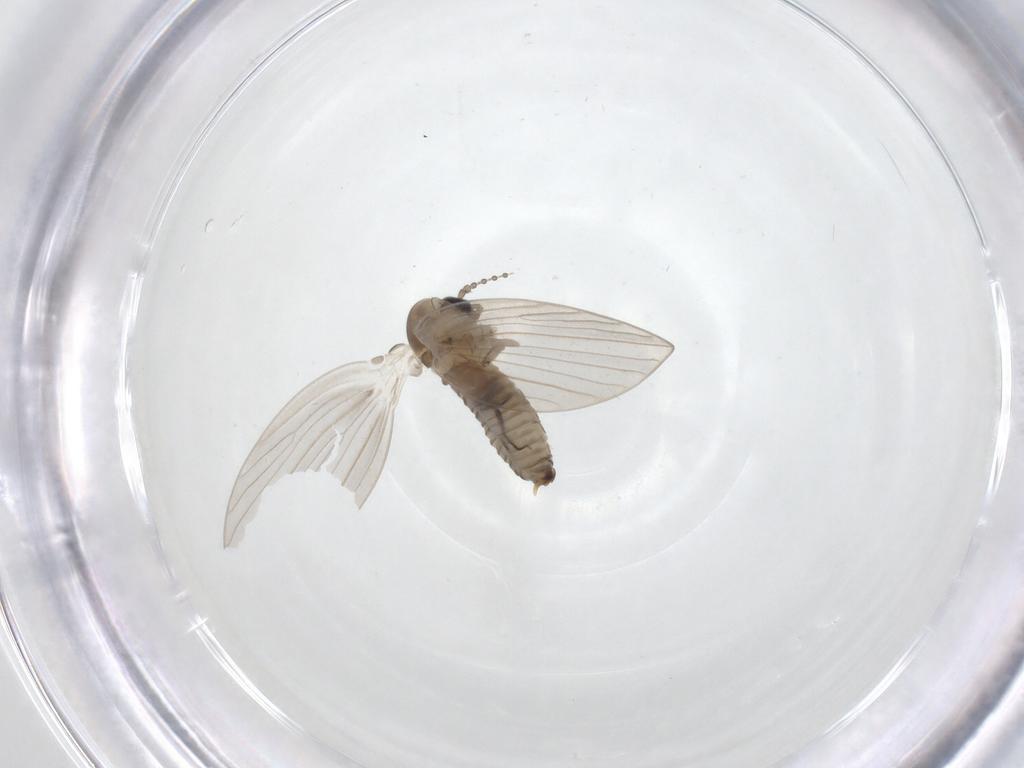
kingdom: Animalia
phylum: Arthropoda
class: Insecta
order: Diptera
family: Psychodidae
